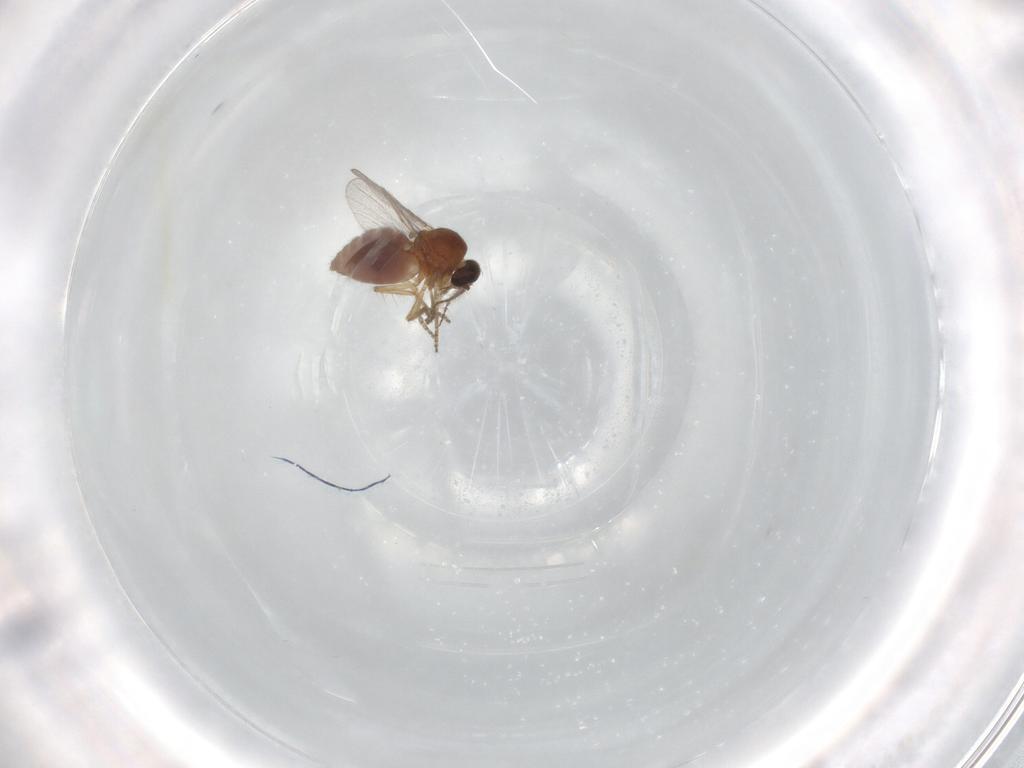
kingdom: Animalia
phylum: Arthropoda
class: Insecta
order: Diptera
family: Ceratopogonidae
